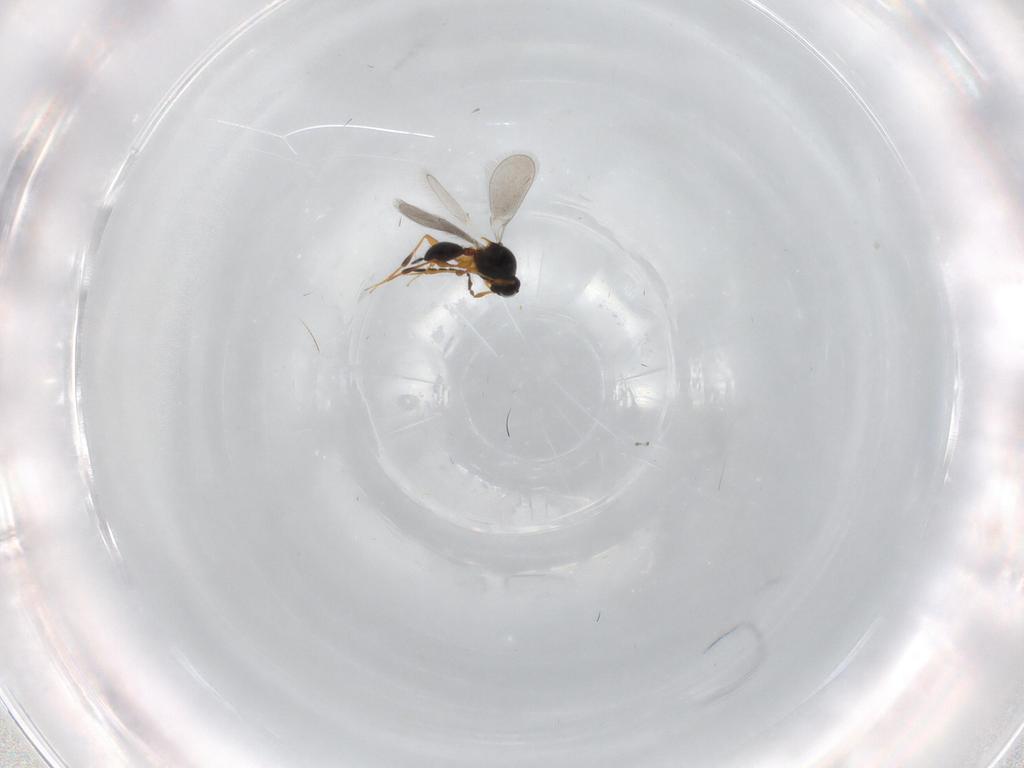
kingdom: Animalia
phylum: Arthropoda
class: Insecta
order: Hymenoptera
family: Platygastridae
